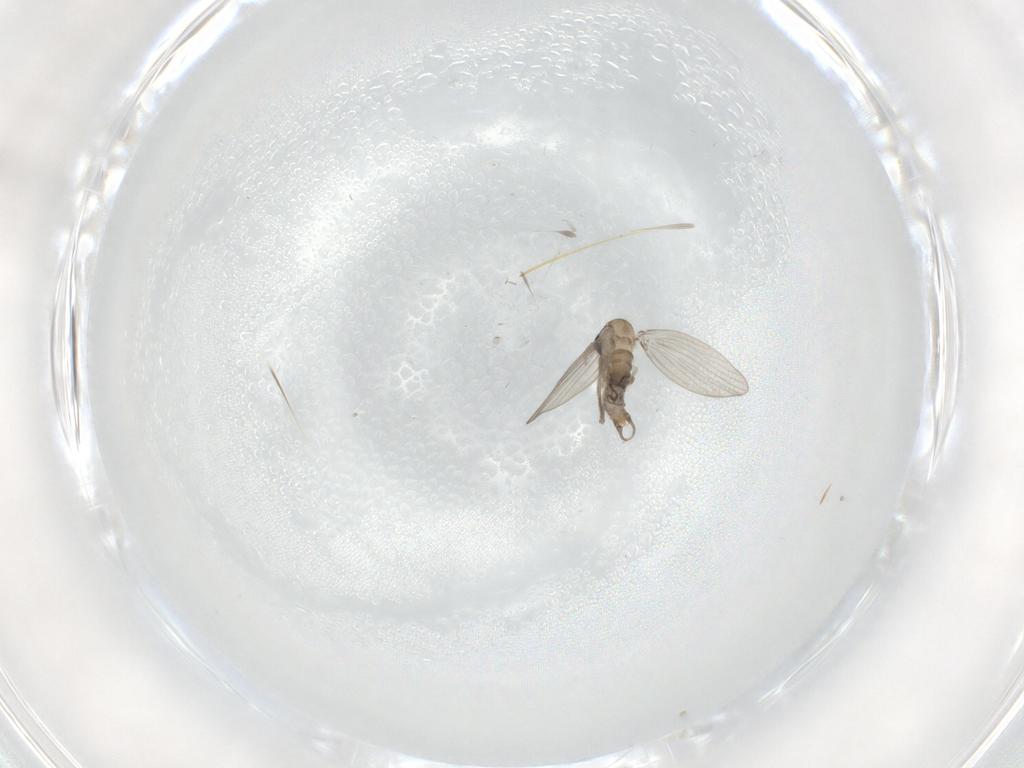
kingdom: Animalia
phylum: Arthropoda
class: Insecta
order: Diptera
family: Psychodidae
